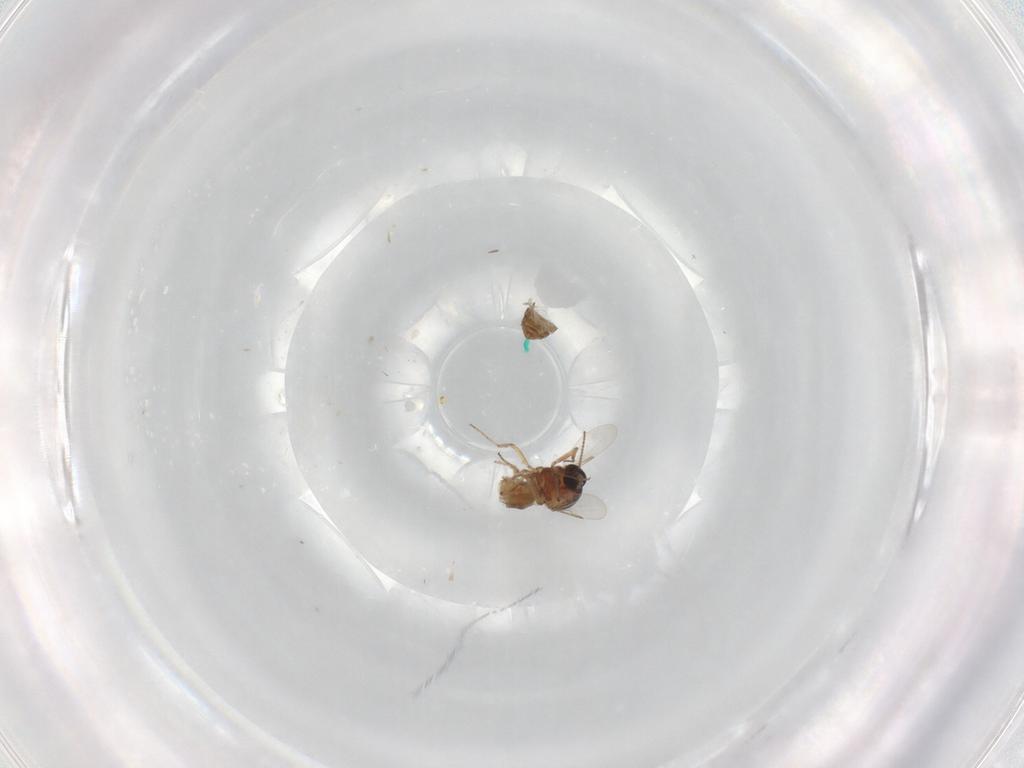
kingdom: Animalia
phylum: Arthropoda
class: Insecta
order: Diptera
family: Ceratopogonidae
